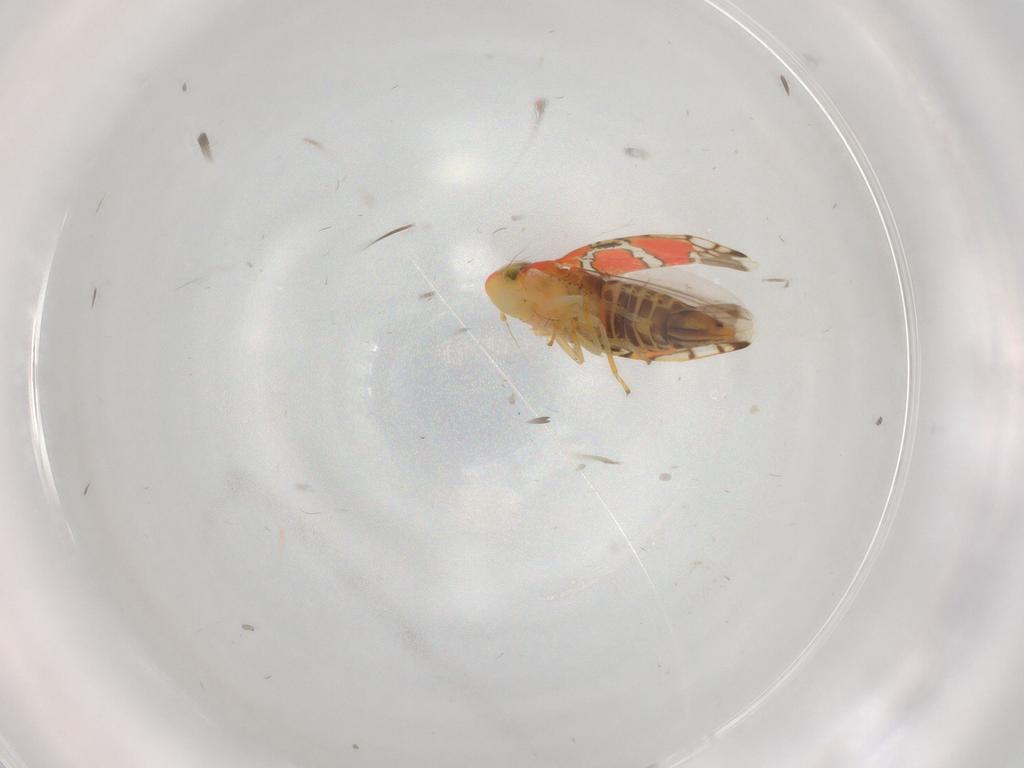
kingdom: Animalia
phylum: Arthropoda
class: Insecta
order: Hemiptera
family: Cicadellidae
